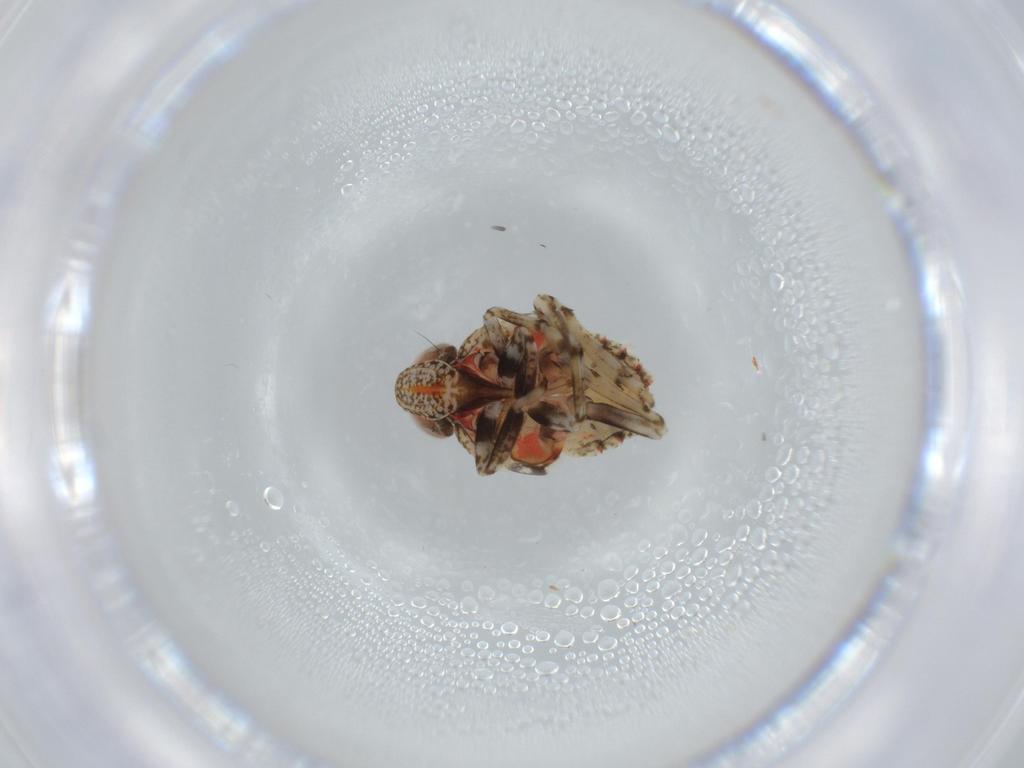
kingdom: Animalia
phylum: Arthropoda
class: Insecta
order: Hemiptera
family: Issidae
